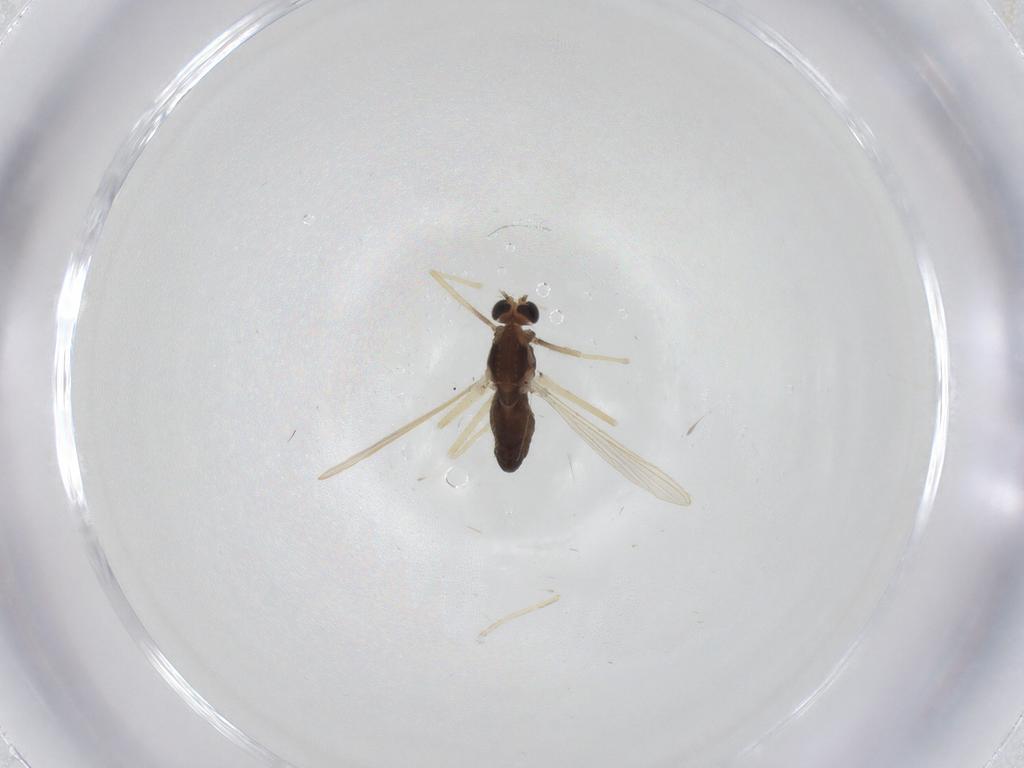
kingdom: Animalia
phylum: Arthropoda
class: Insecta
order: Diptera
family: Chironomidae
